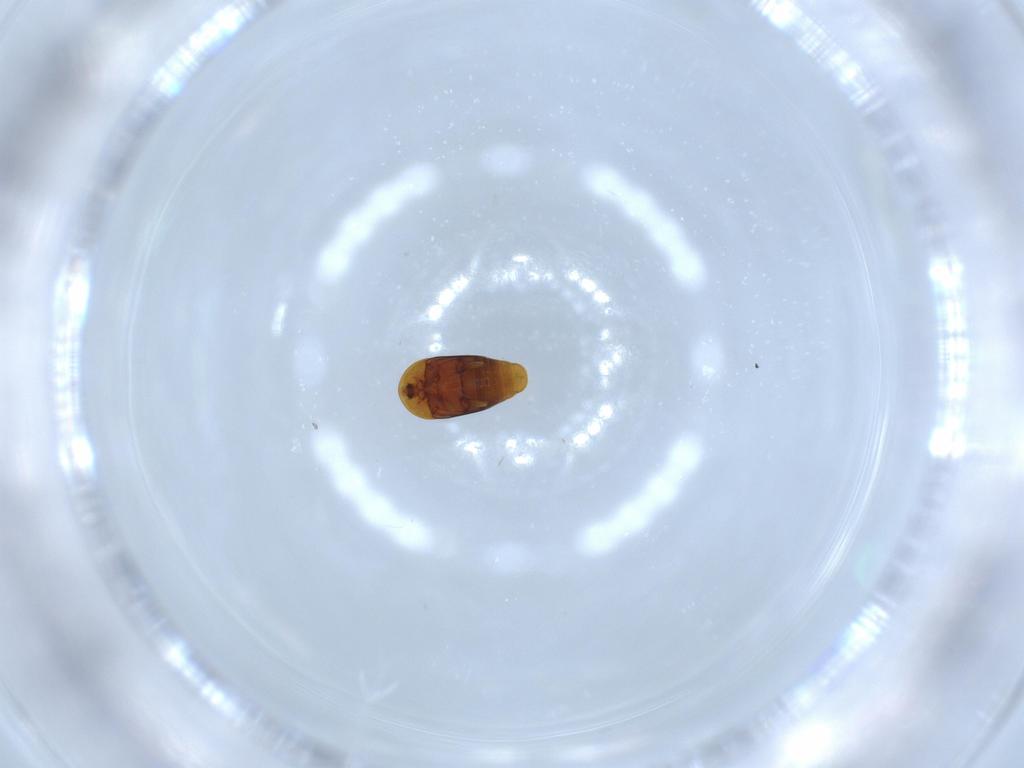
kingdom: Animalia
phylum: Arthropoda
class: Insecta
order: Coleoptera
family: Corylophidae
